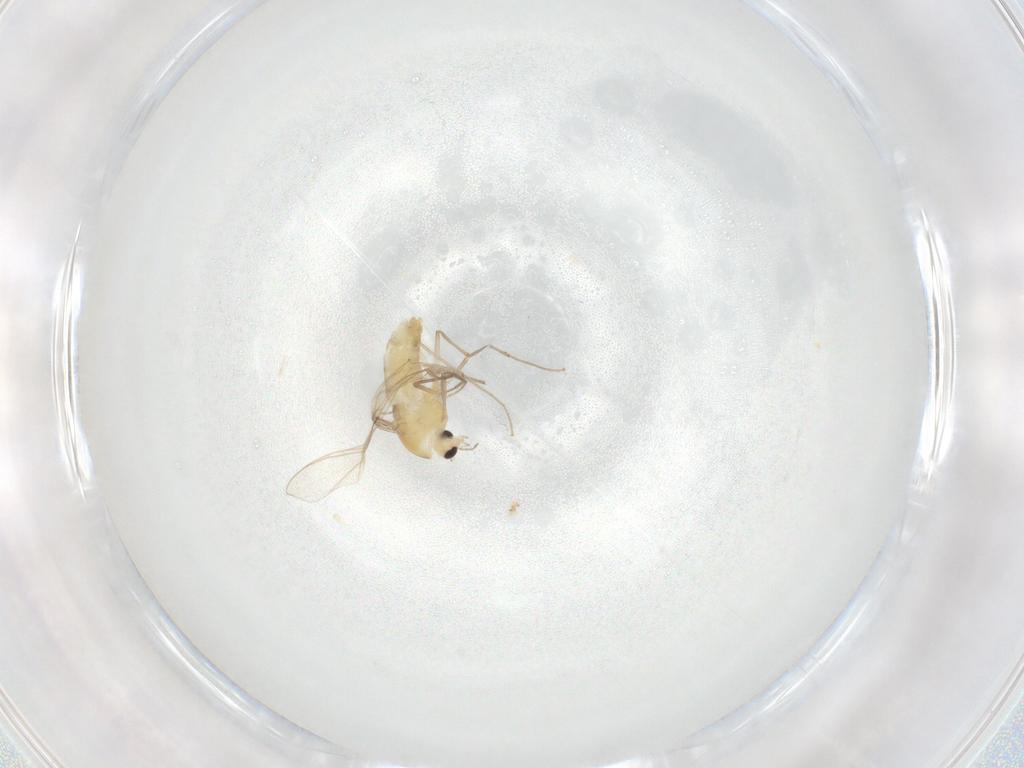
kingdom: Animalia
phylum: Arthropoda
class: Insecta
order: Diptera
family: Chironomidae
